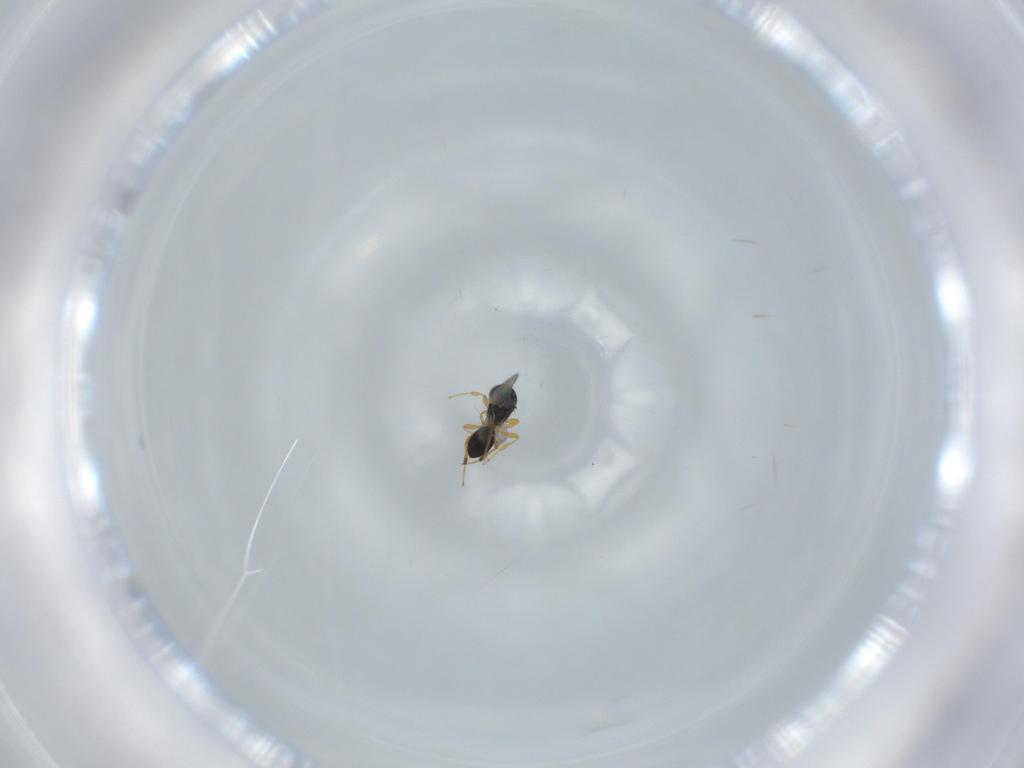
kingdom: Animalia
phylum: Arthropoda
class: Insecta
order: Hymenoptera
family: Platygastridae
